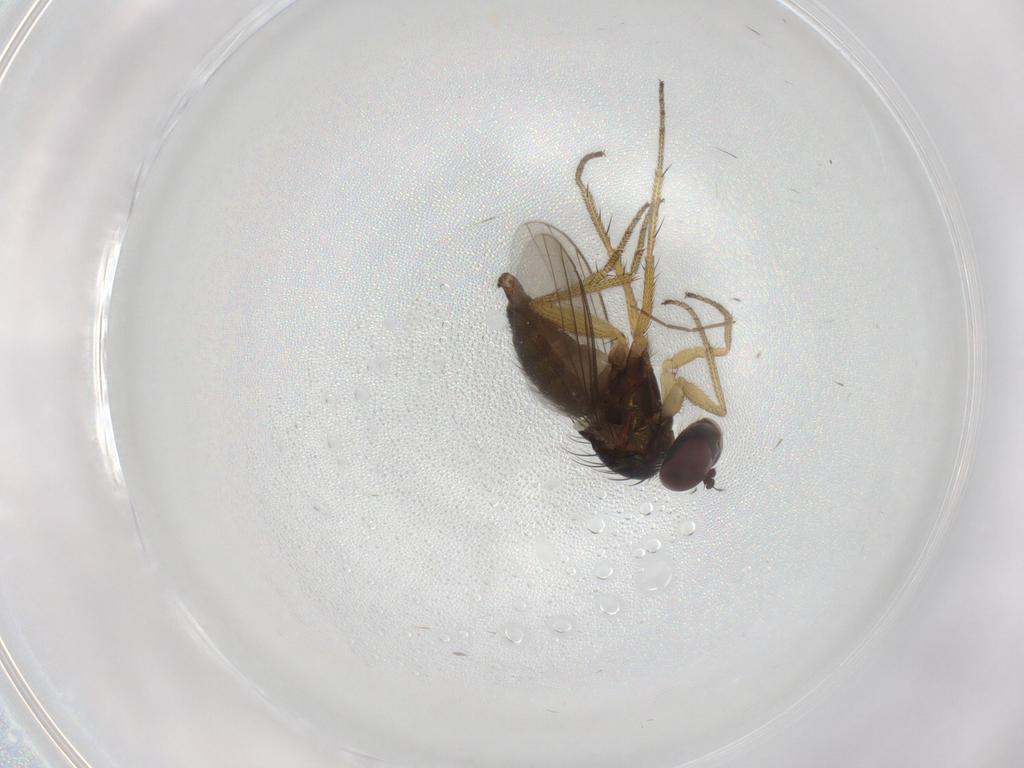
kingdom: Animalia
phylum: Arthropoda
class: Insecta
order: Diptera
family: Dolichopodidae
